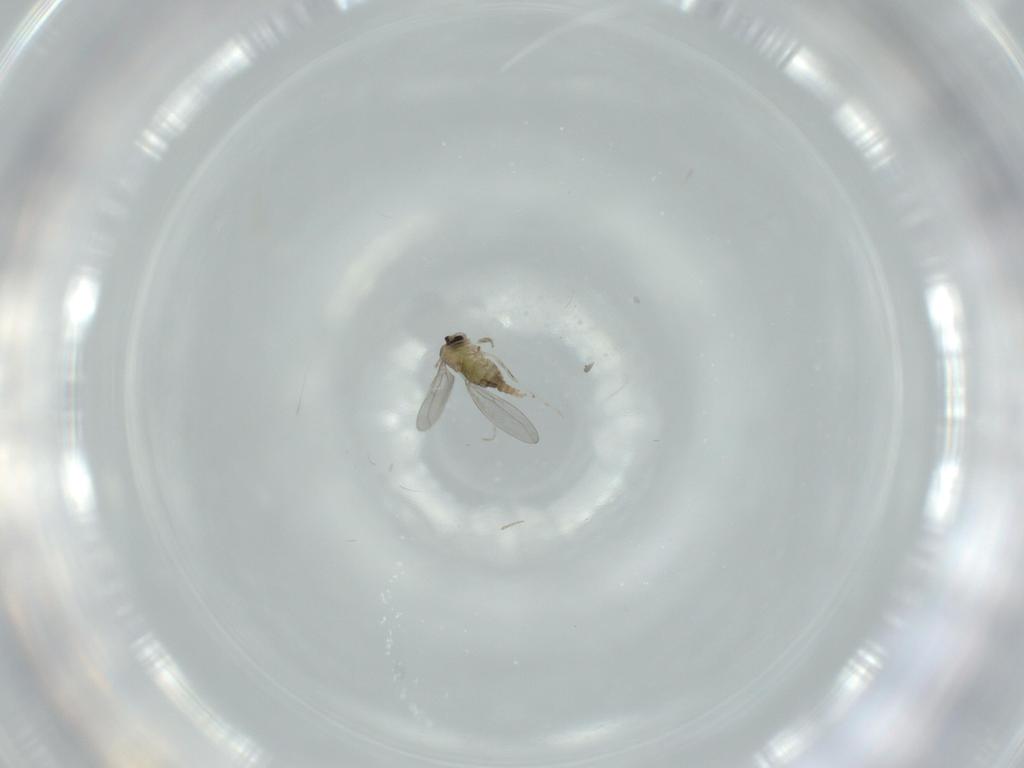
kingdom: Animalia
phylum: Arthropoda
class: Insecta
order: Diptera
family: Cecidomyiidae
